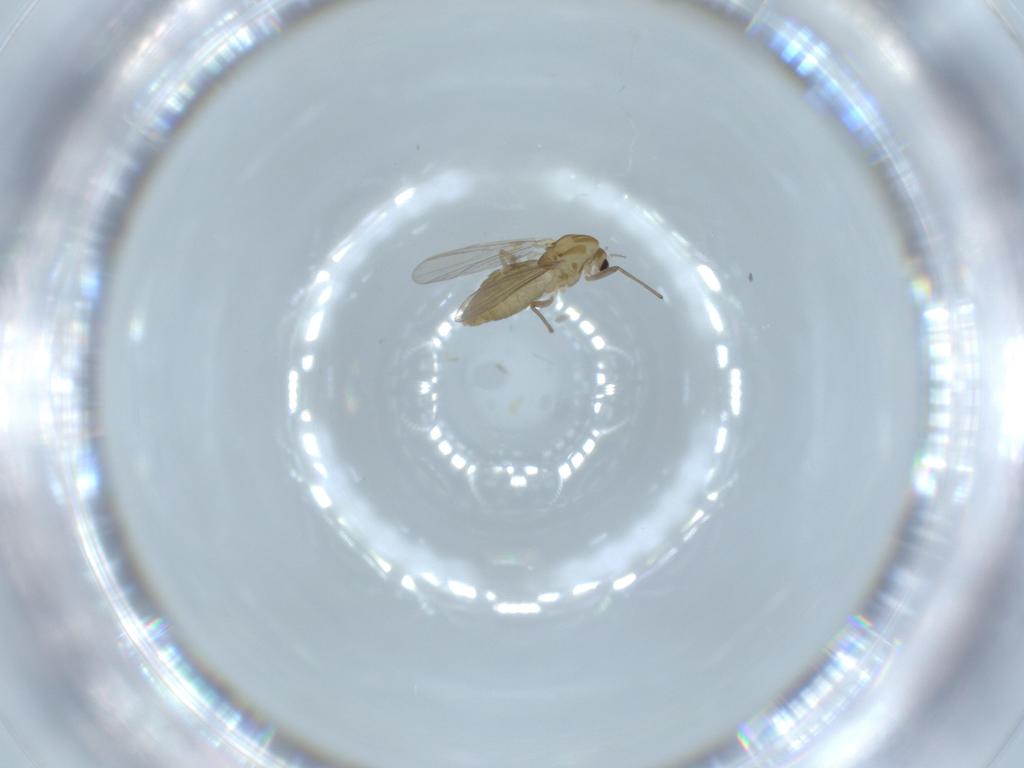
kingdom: Animalia
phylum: Arthropoda
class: Insecta
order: Diptera
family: Chironomidae
